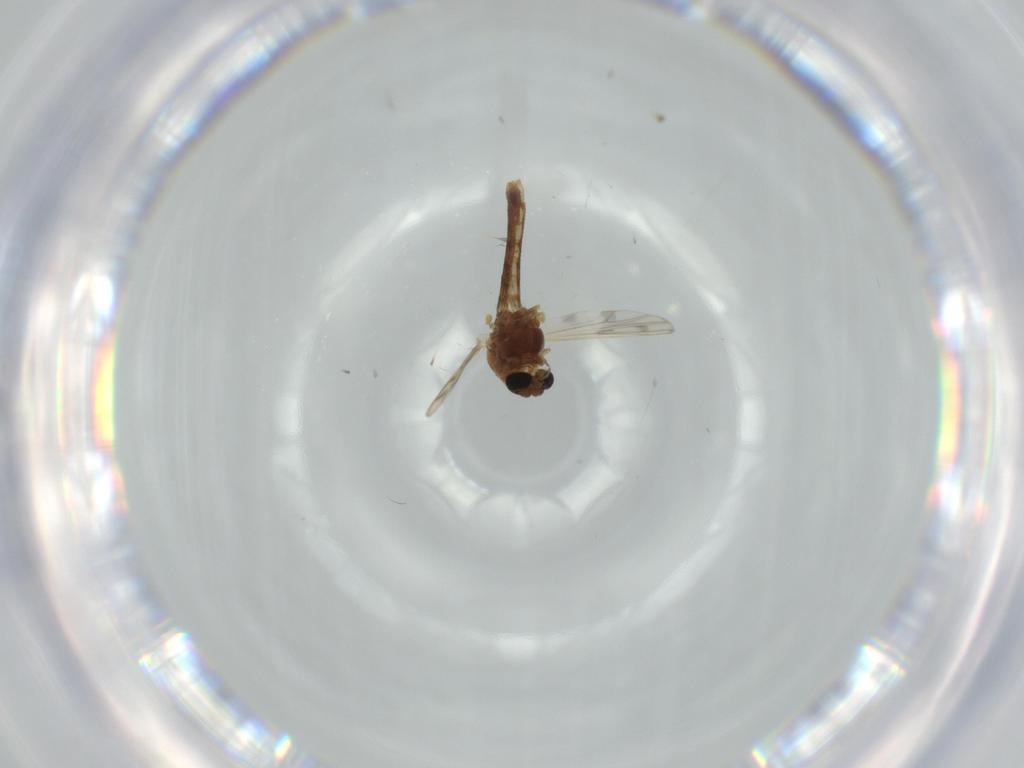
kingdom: Animalia
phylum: Arthropoda
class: Insecta
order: Diptera
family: Chironomidae
